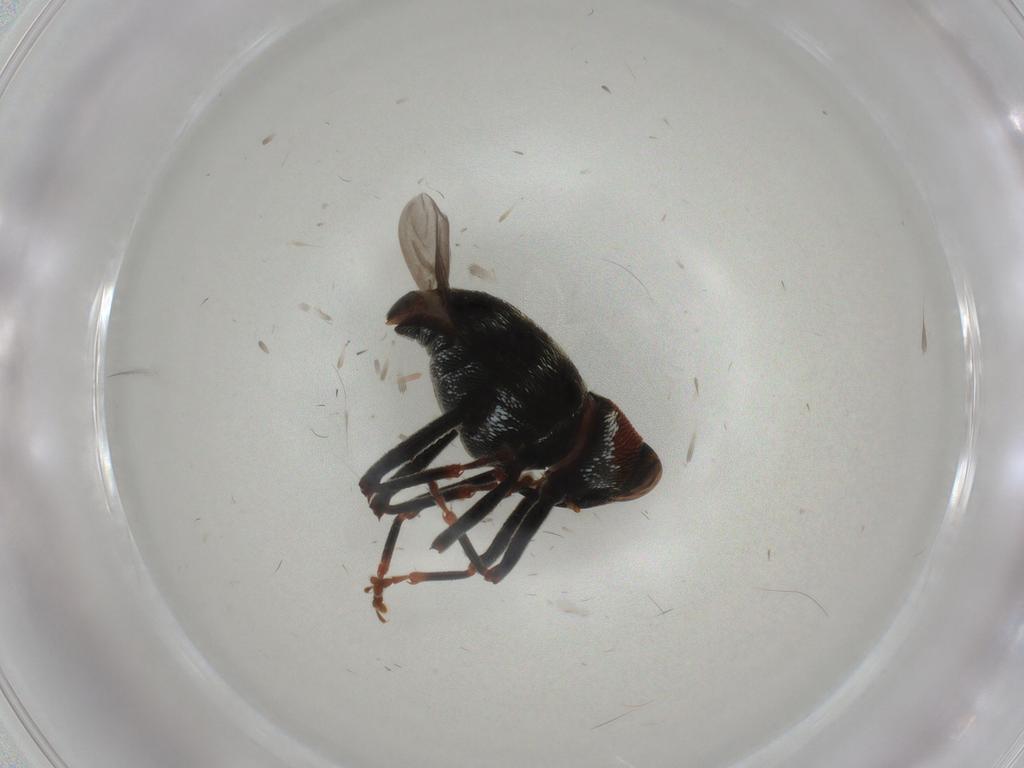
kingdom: Animalia
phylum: Arthropoda
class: Insecta
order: Coleoptera
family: Curculionidae
